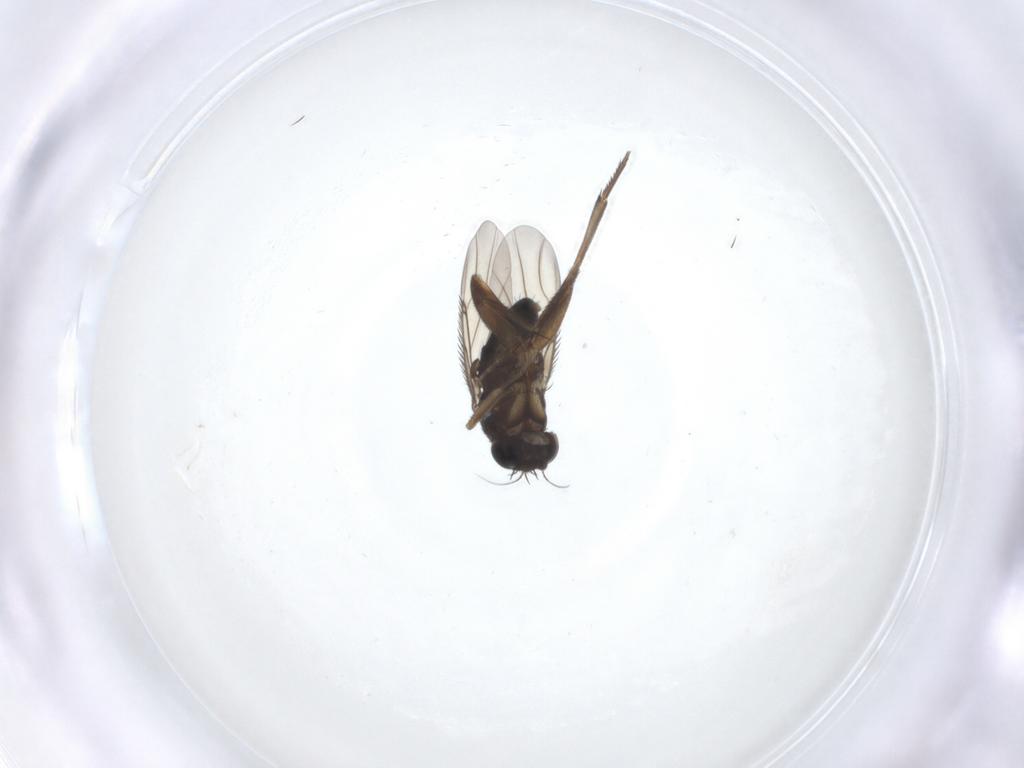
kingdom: Animalia
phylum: Arthropoda
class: Insecta
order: Diptera
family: Phoridae
